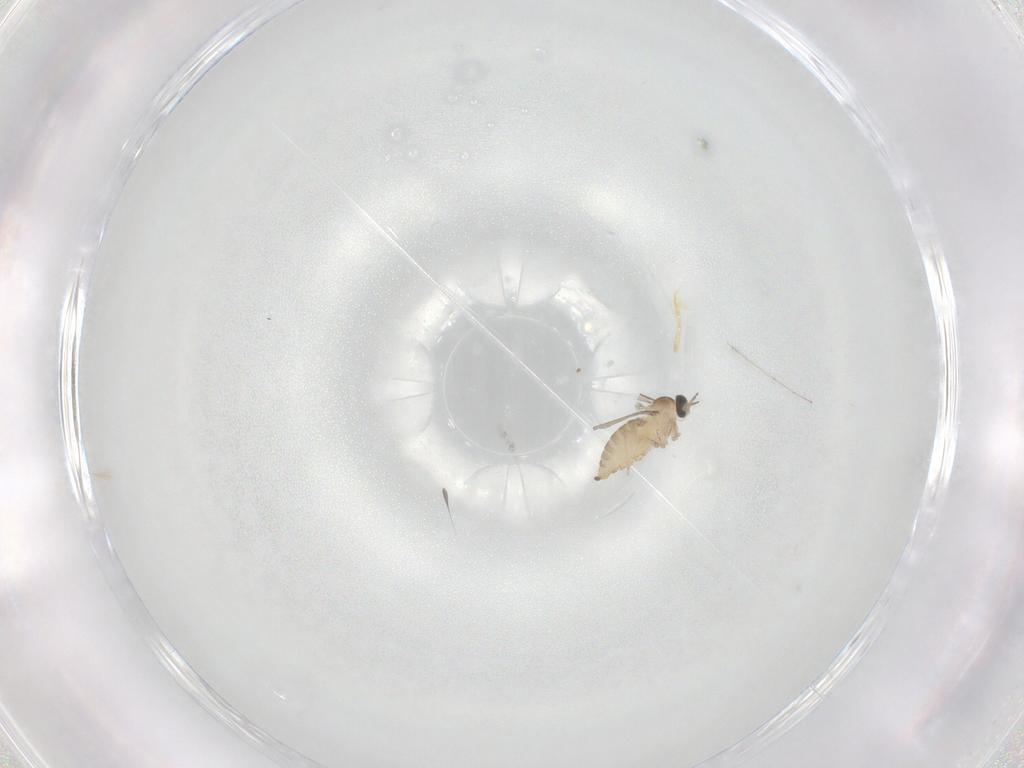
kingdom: Animalia
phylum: Arthropoda
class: Insecta
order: Diptera
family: Cecidomyiidae
